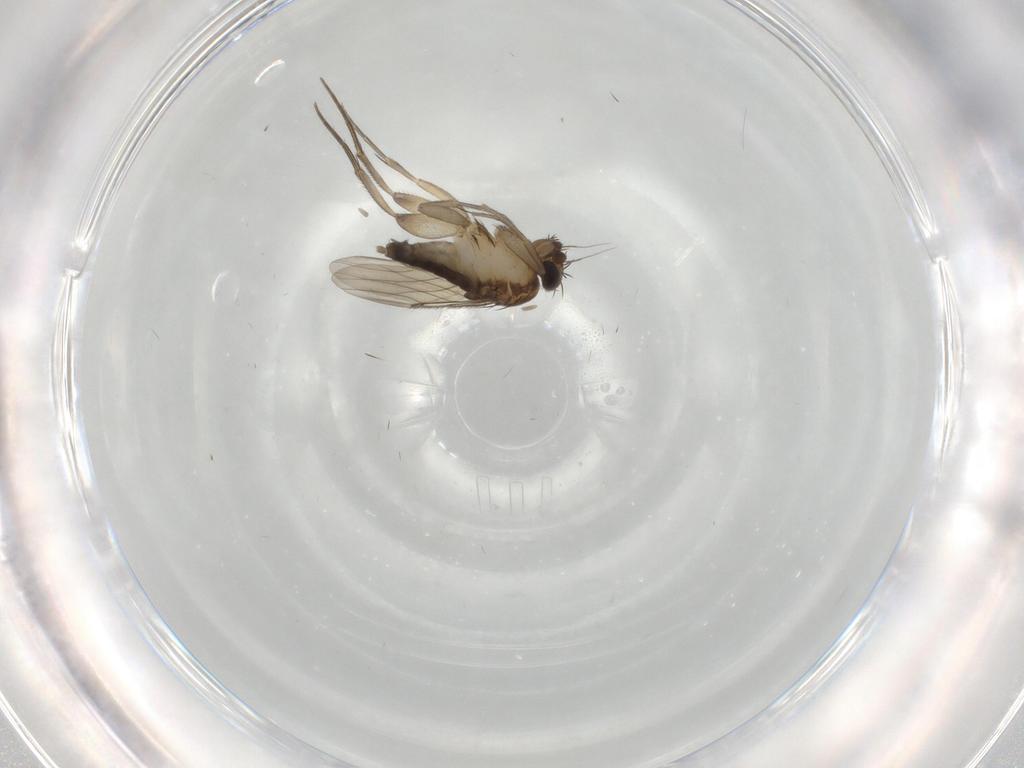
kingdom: Animalia
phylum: Arthropoda
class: Insecta
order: Diptera
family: Phoridae
